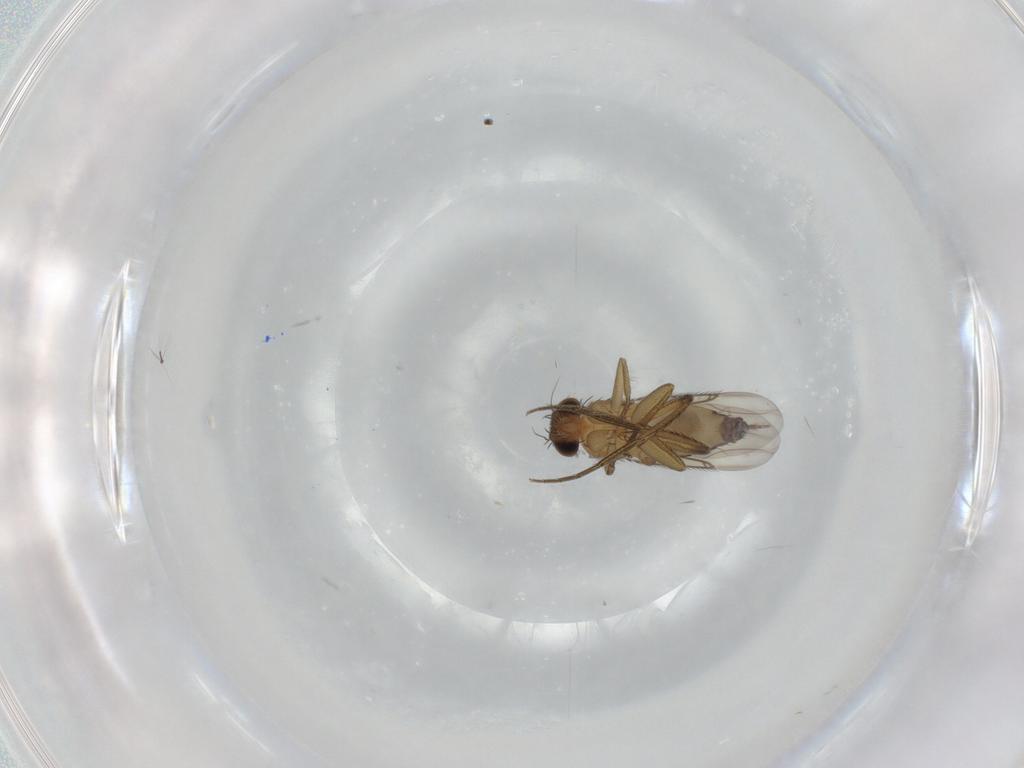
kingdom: Animalia
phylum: Arthropoda
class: Insecta
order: Diptera
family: Phoridae
